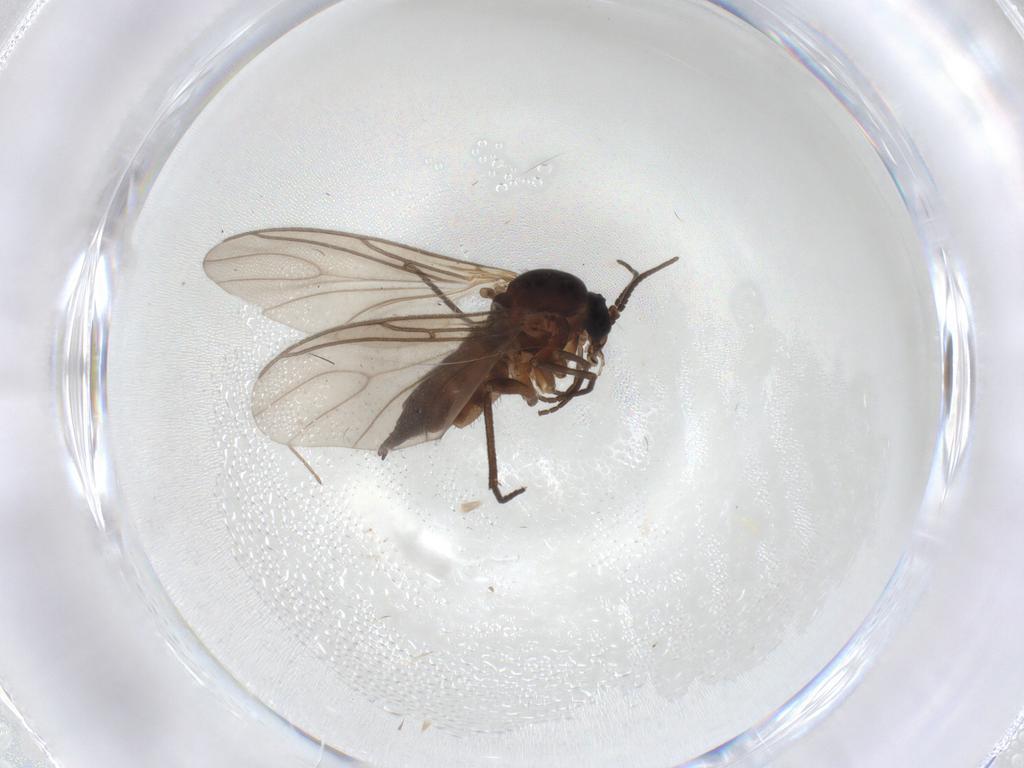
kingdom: Animalia
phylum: Arthropoda
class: Insecta
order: Diptera
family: Sciaridae
